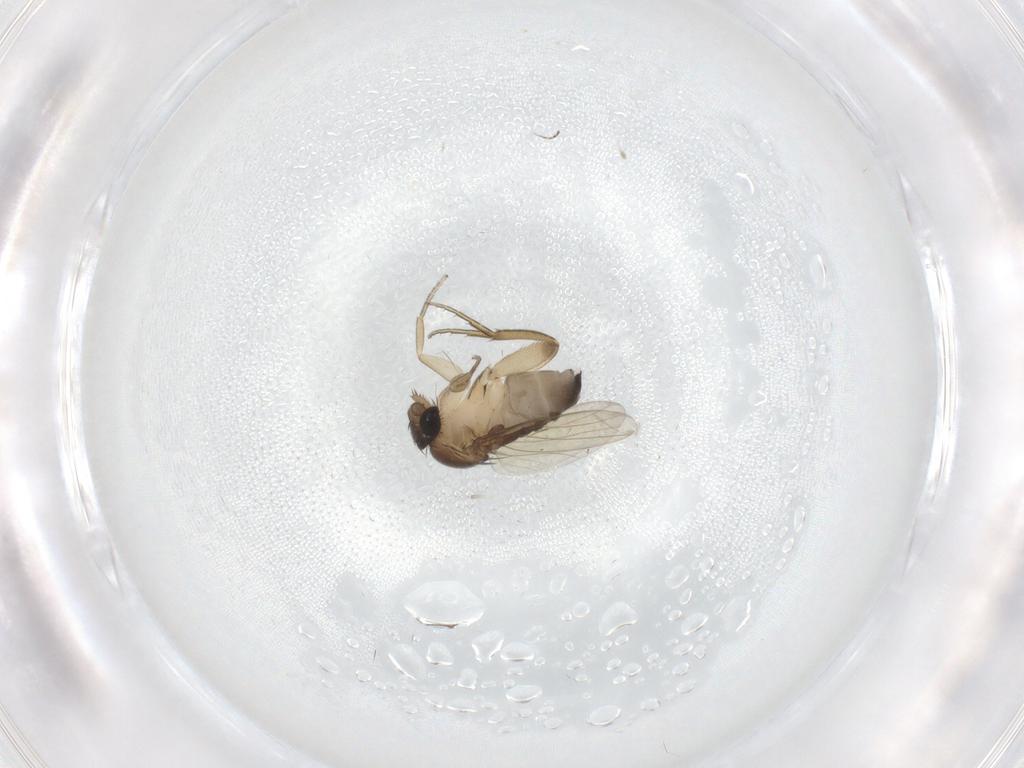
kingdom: Animalia
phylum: Arthropoda
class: Insecta
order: Diptera
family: Phoridae
